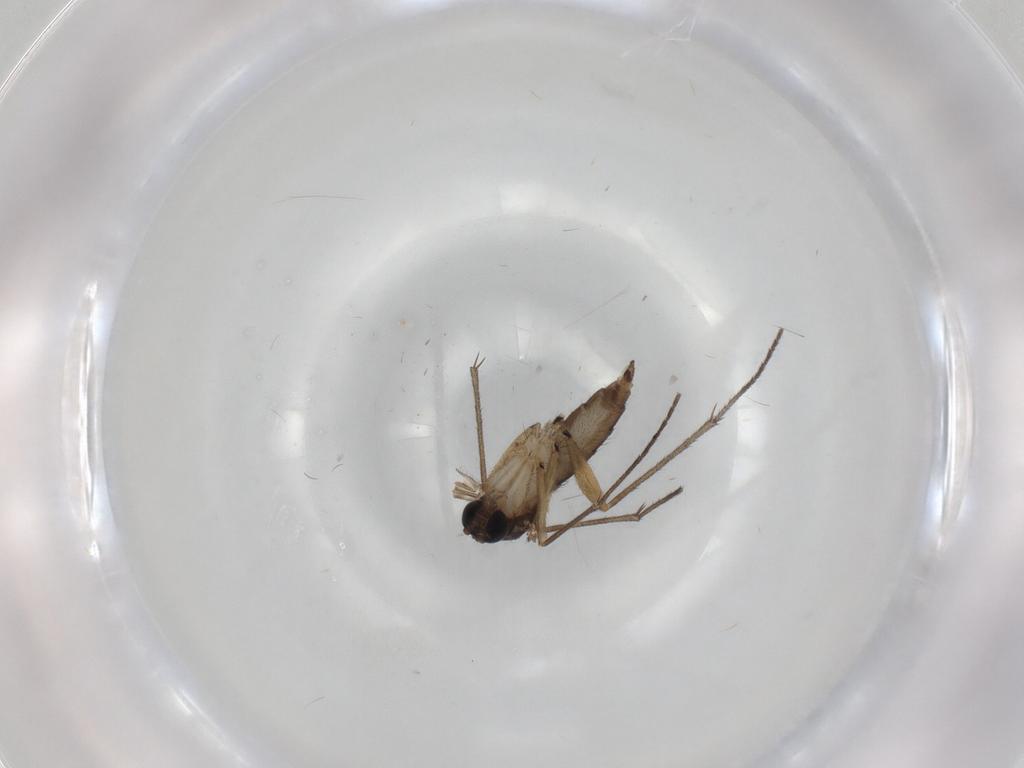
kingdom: Animalia
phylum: Arthropoda
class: Insecta
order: Diptera
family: Sciaridae
